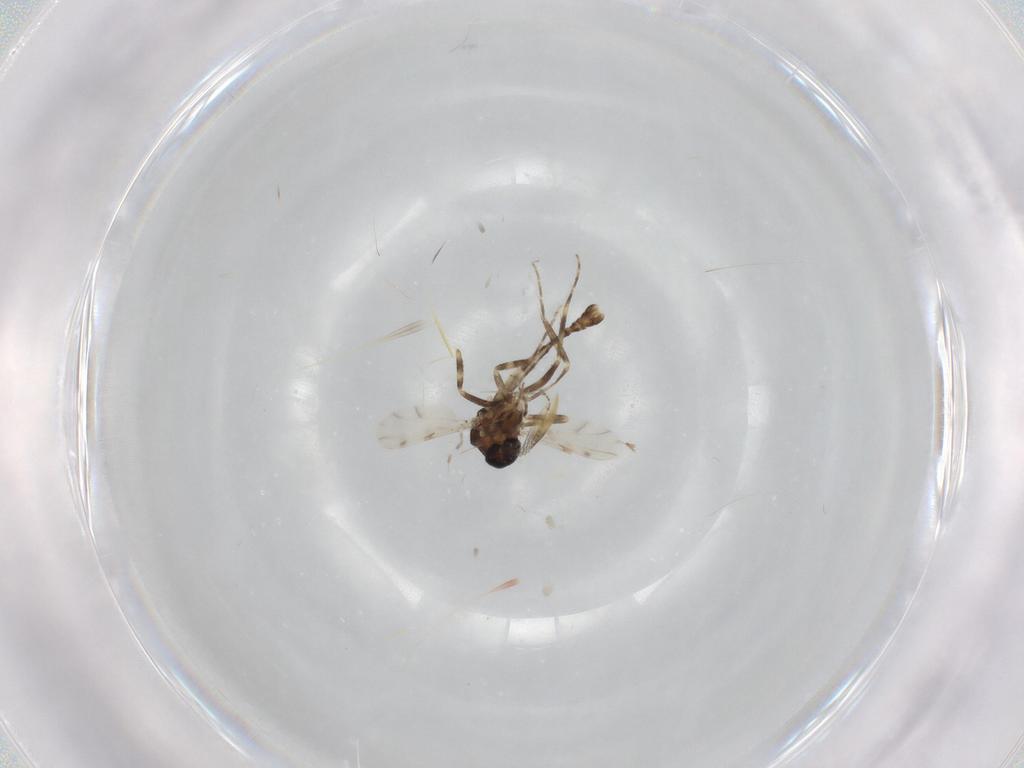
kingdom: Animalia
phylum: Arthropoda
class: Insecta
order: Diptera
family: Ceratopogonidae
